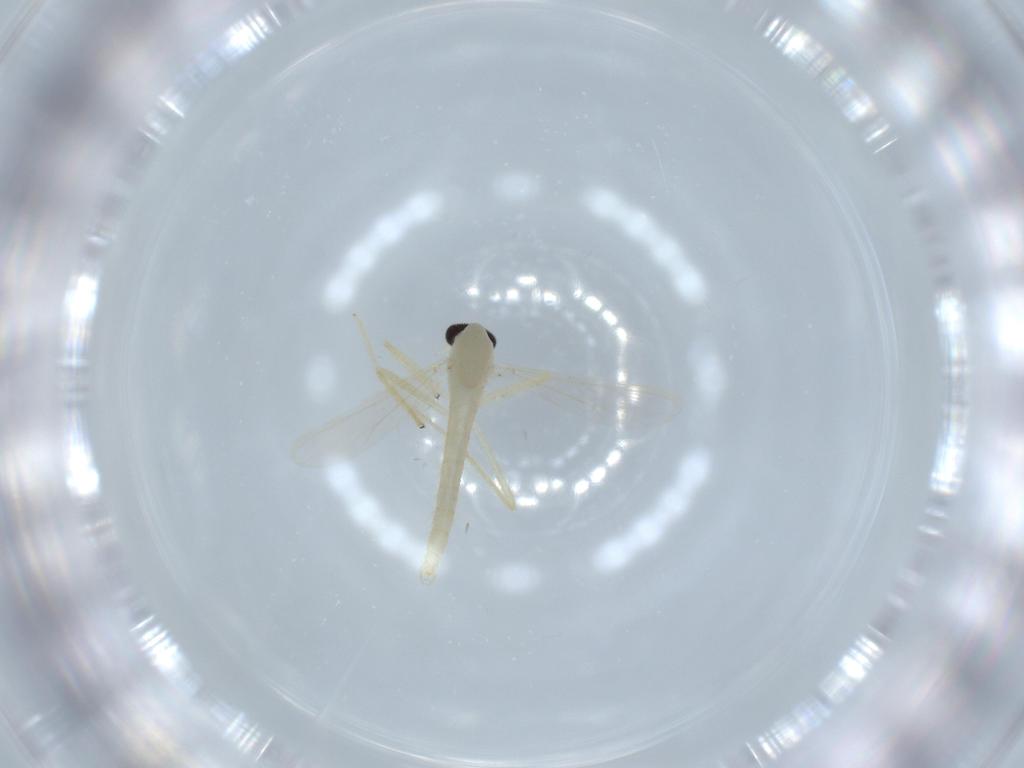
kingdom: Animalia
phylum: Arthropoda
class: Insecta
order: Diptera
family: Chironomidae
